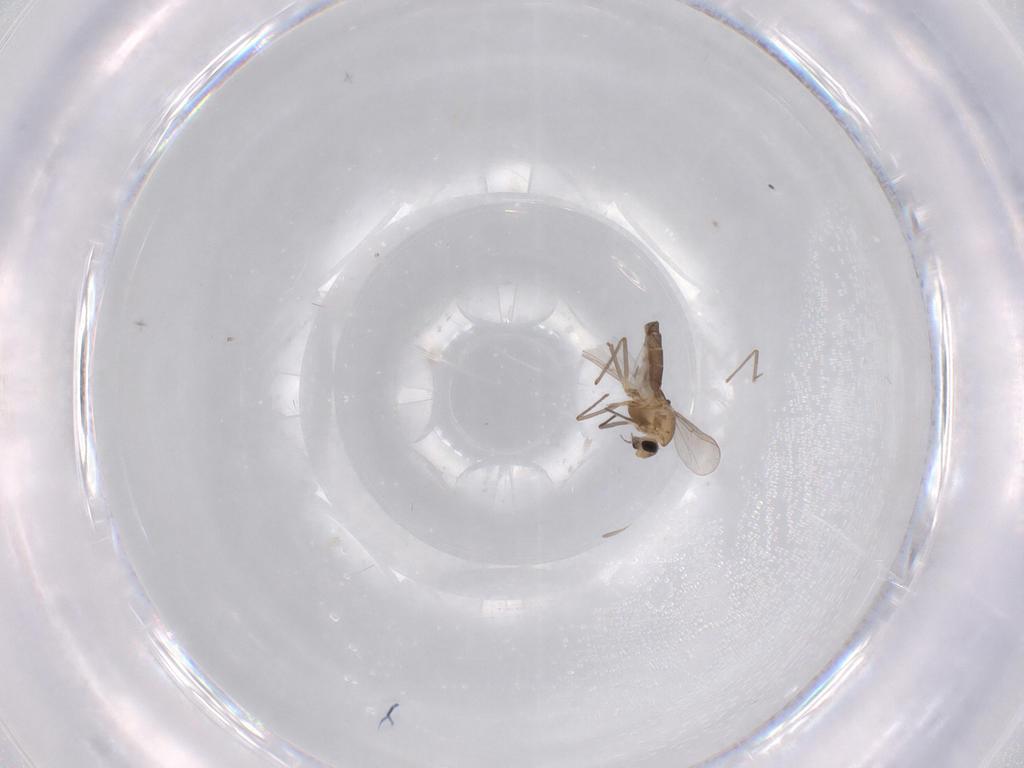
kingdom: Animalia
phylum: Arthropoda
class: Insecta
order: Diptera
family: Chironomidae
